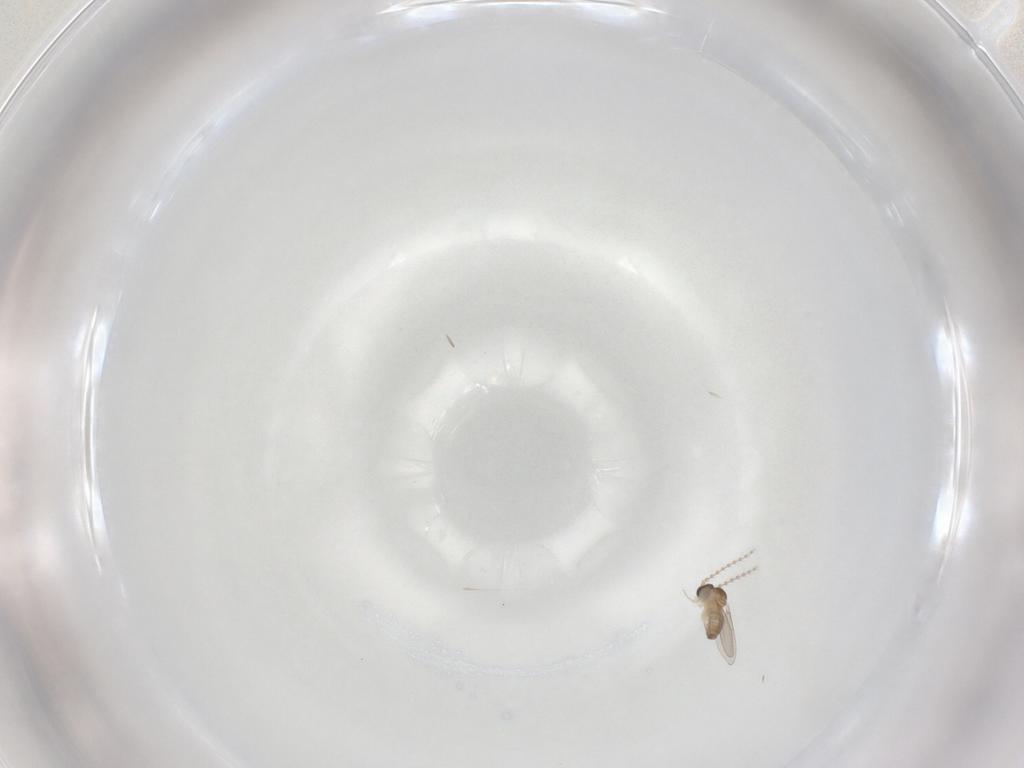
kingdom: Animalia
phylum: Arthropoda
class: Insecta
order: Diptera
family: Cecidomyiidae
